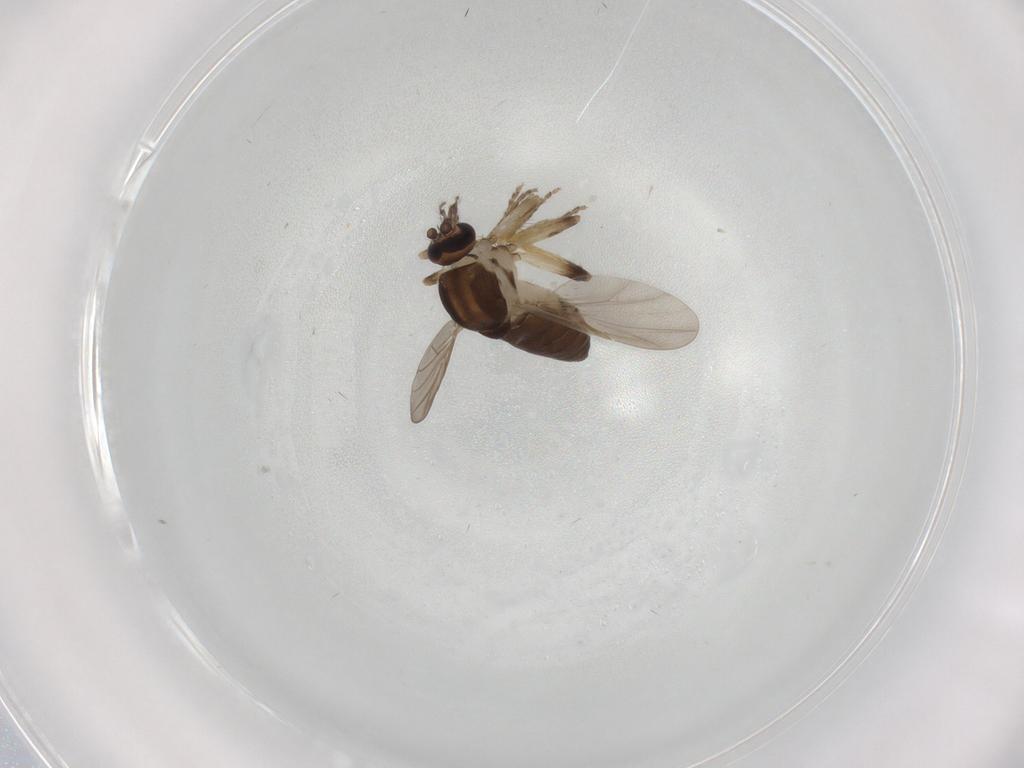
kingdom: Animalia
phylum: Arthropoda
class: Insecta
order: Diptera
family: Ceratopogonidae
